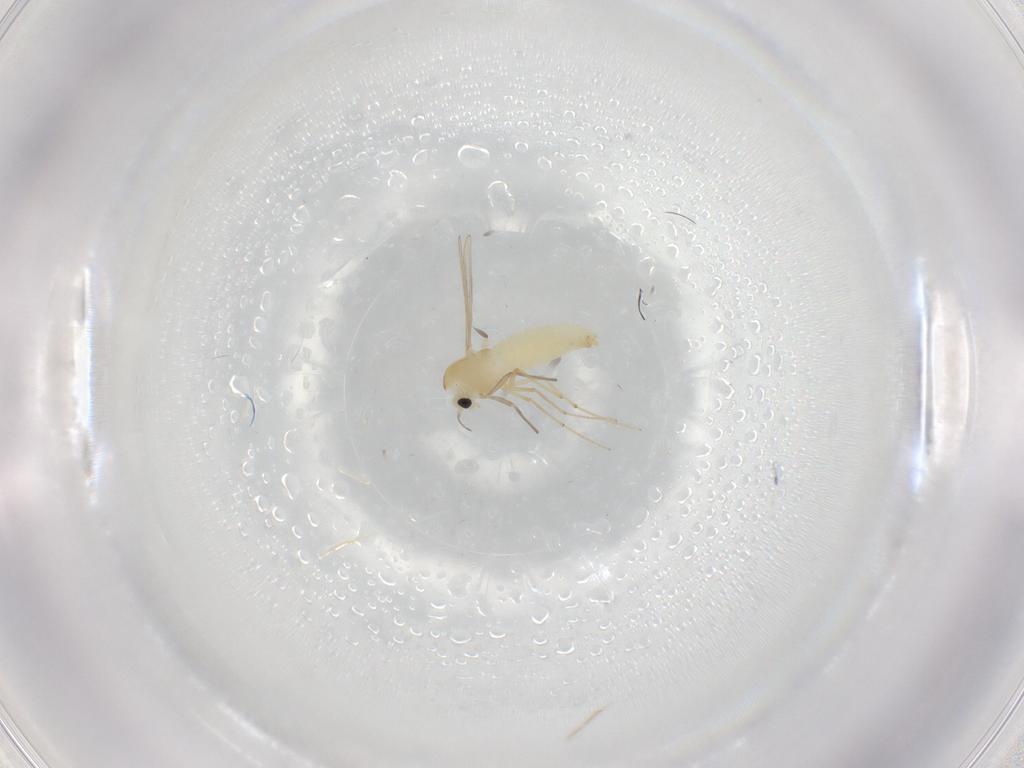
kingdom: Animalia
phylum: Arthropoda
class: Insecta
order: Diptera
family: Chironomidae
